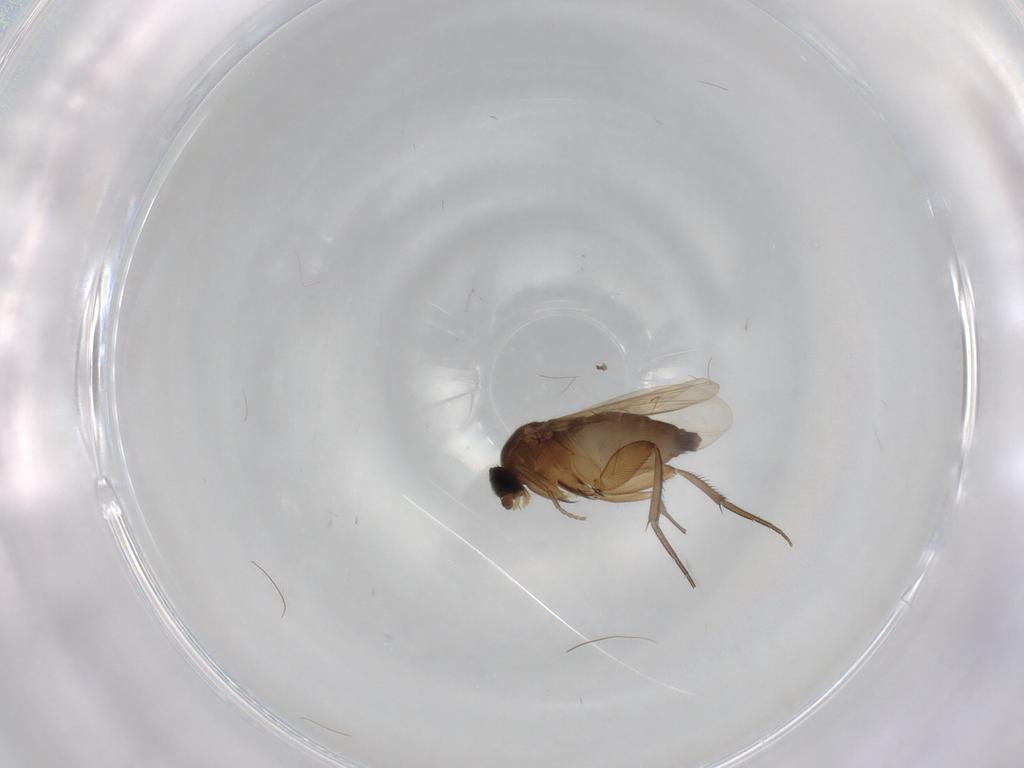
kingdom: Animalia
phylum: Arthropoda
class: Insecta
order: Diptera
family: Phoridae
